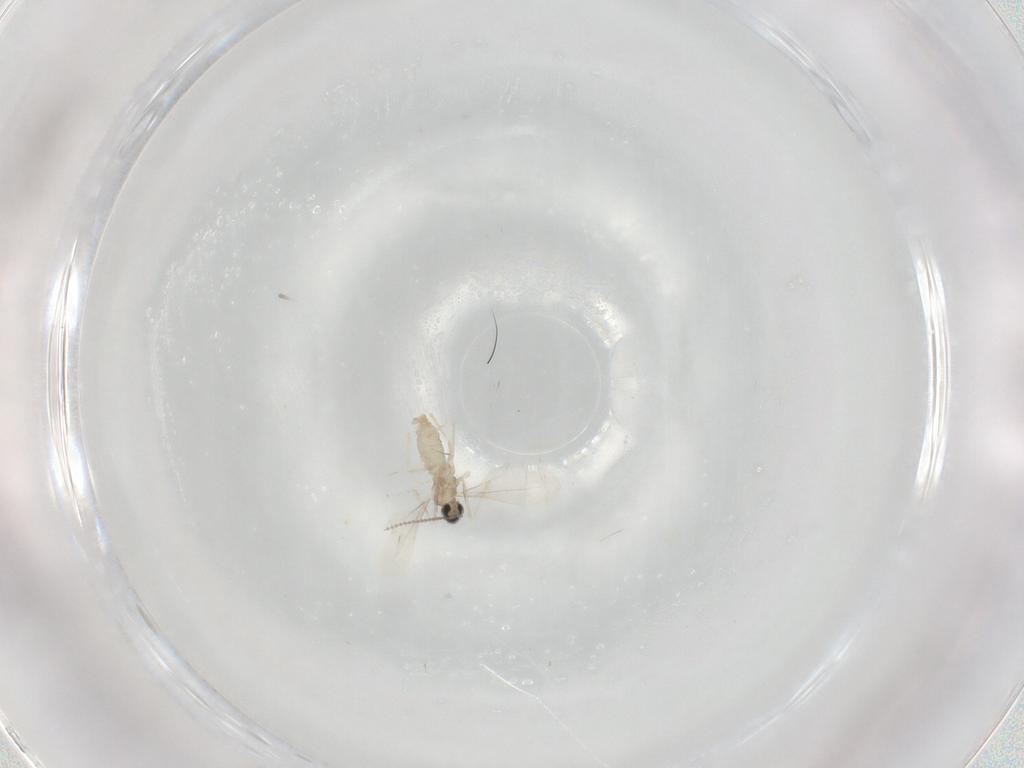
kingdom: Animalia
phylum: Arthropoda
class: Insecta
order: Diptera
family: Cecidomyiidae
